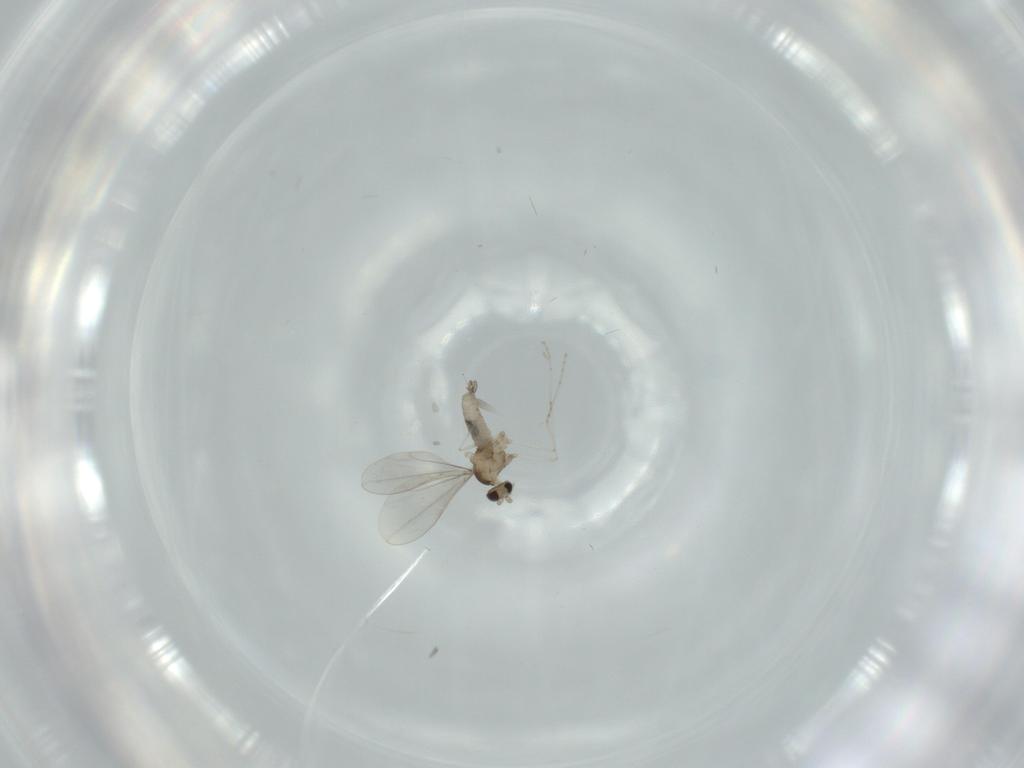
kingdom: Animalia
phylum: Arthropoda
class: Insecta
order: Diptera
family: Cecidomyiidae
